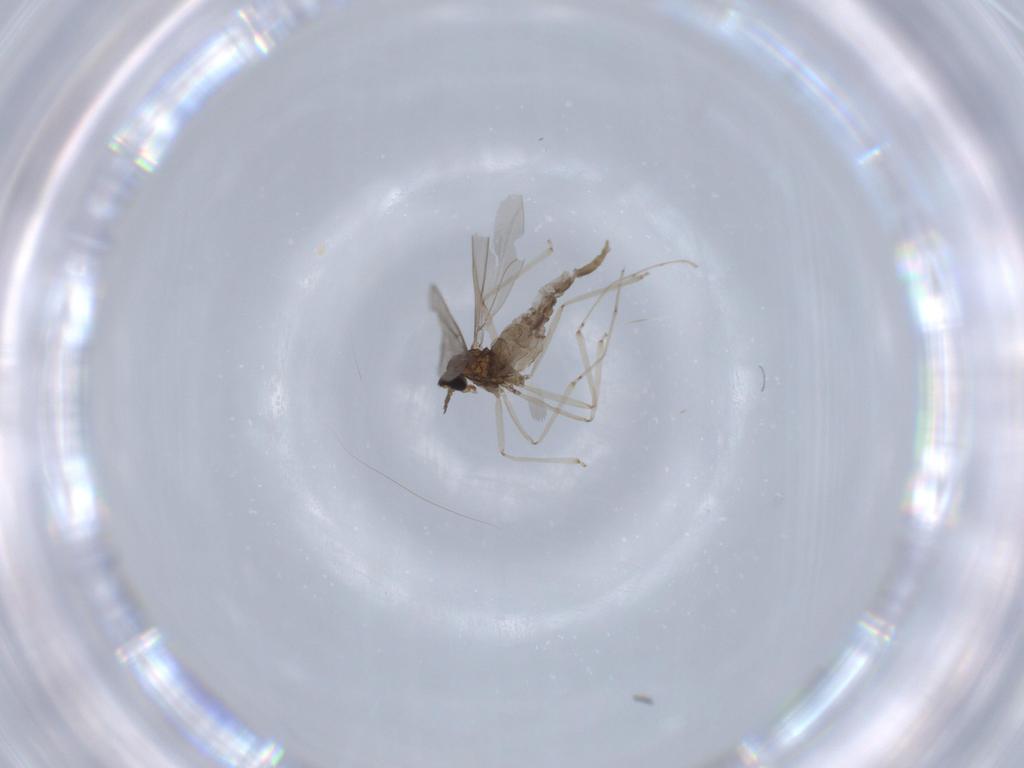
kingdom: Animalia
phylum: Arthropoda
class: Insecta
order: Diptera
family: Cecidomyiidae
